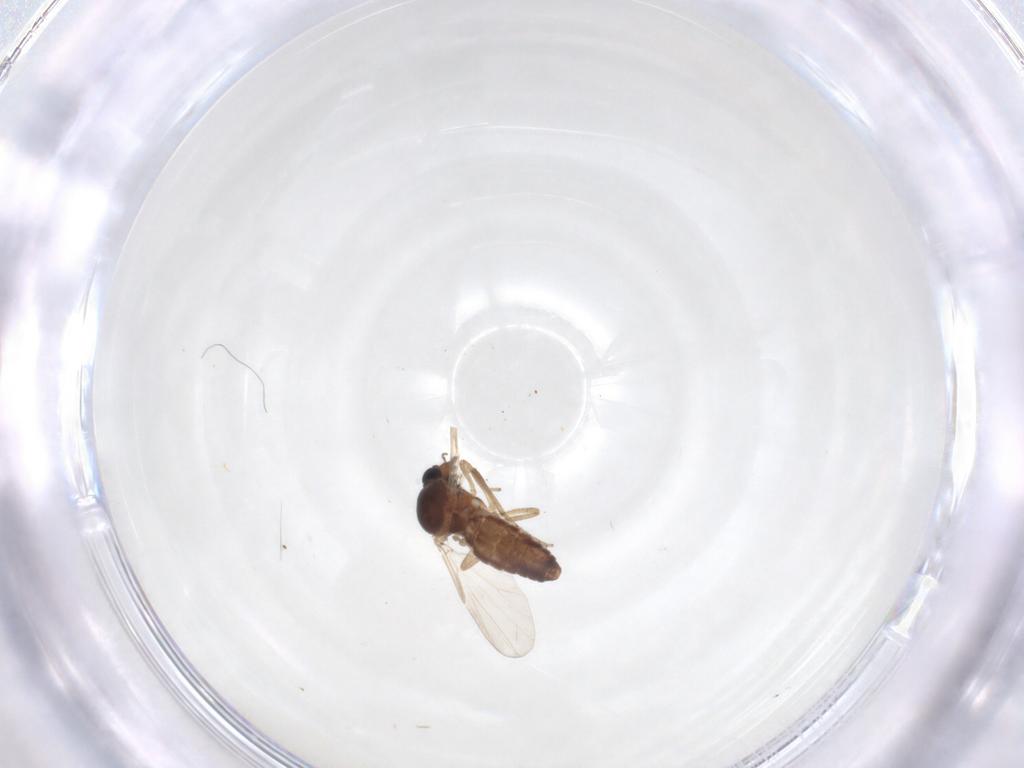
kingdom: Animalia
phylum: Arthropoda
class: Insecta
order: Diptera
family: Ceratopogonidae
